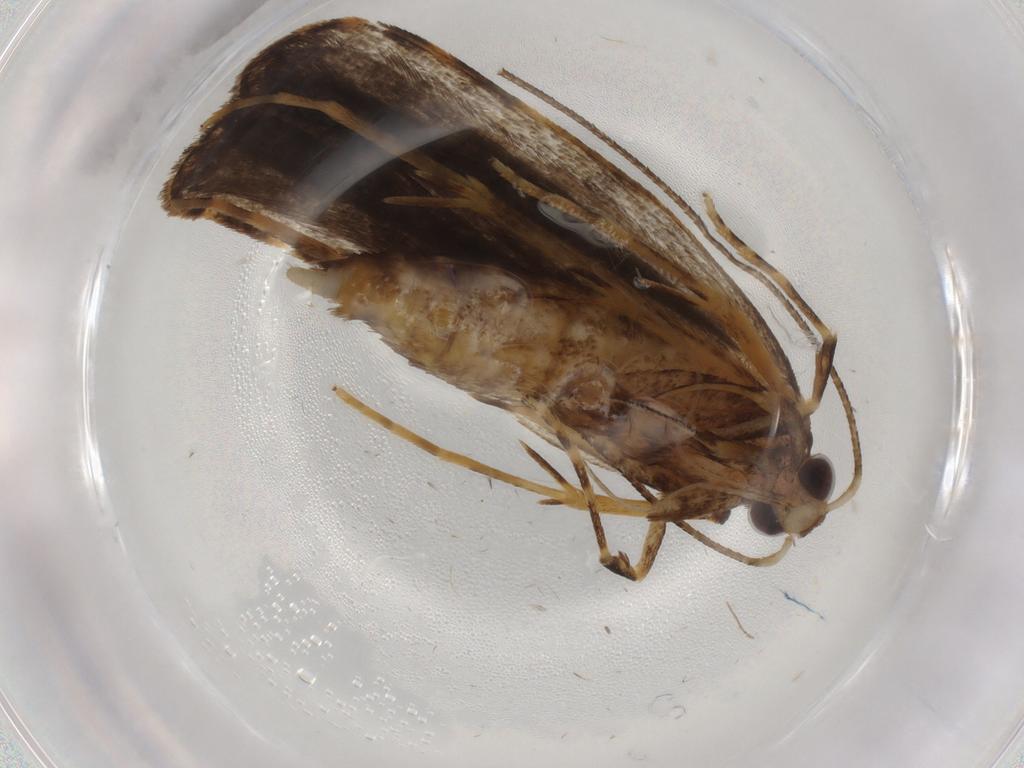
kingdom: Animalia
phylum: Arthropoda
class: Insecta
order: Lepidoptera
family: Autostichidae
